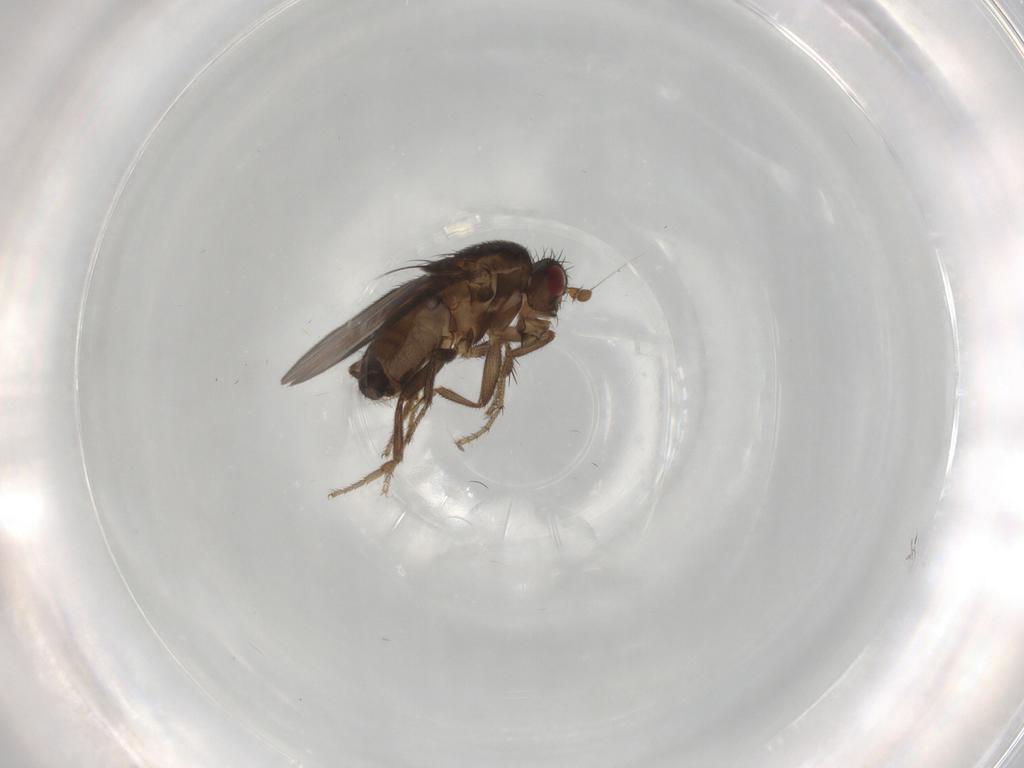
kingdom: Animalia
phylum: Arthropoda
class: Insecta
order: Diptera
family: Sphaeroceridae
